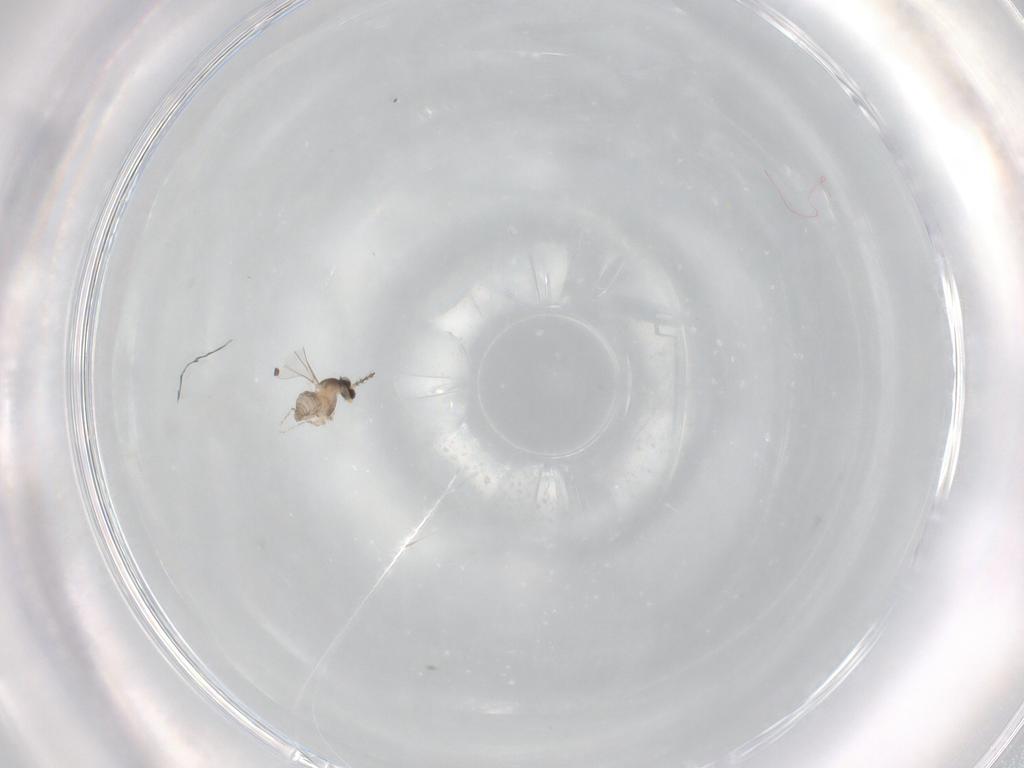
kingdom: Animalia
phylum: Arthropoda
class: Insecta
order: Diptera
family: Cecidomyiidae
